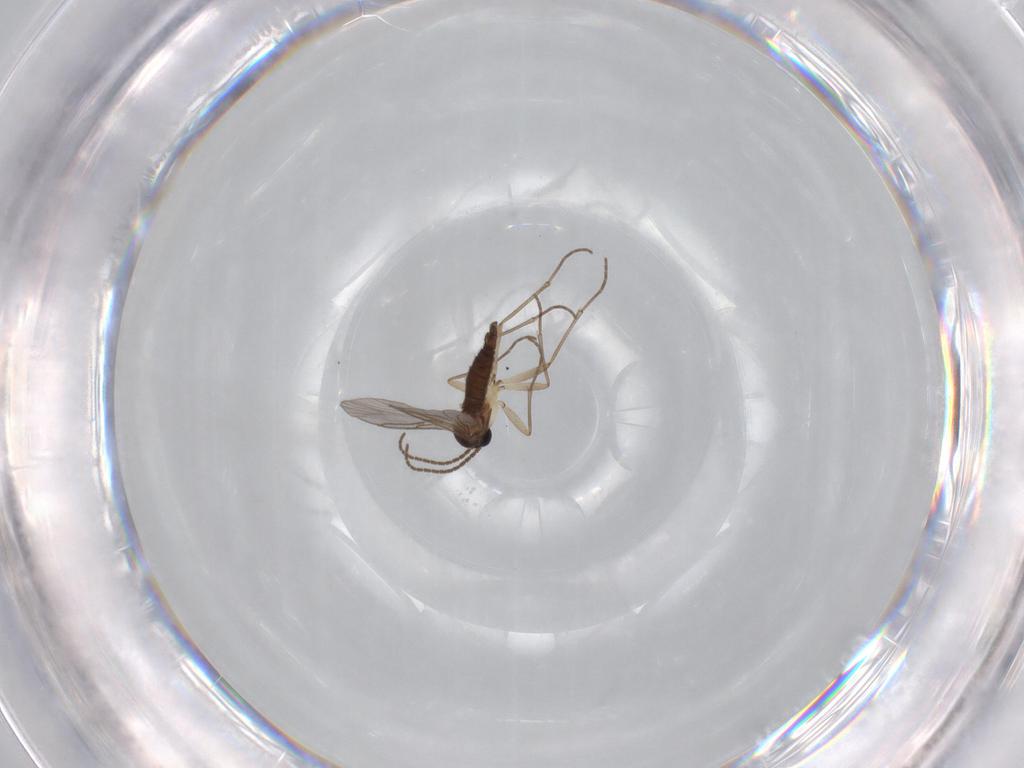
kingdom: Animalia
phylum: Arthropoda
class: Insecta
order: Diptera
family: Sciaridae
